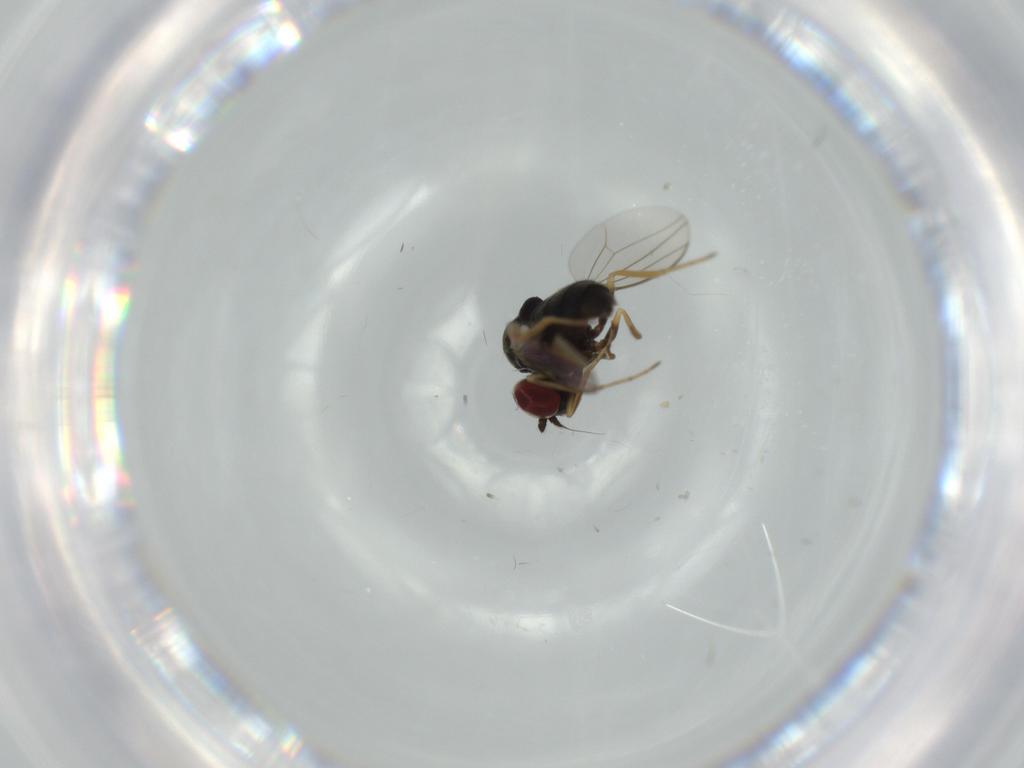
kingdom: Animalia
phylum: Arthropoda
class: Insecta
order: Diptera
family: Dolichopodidae
